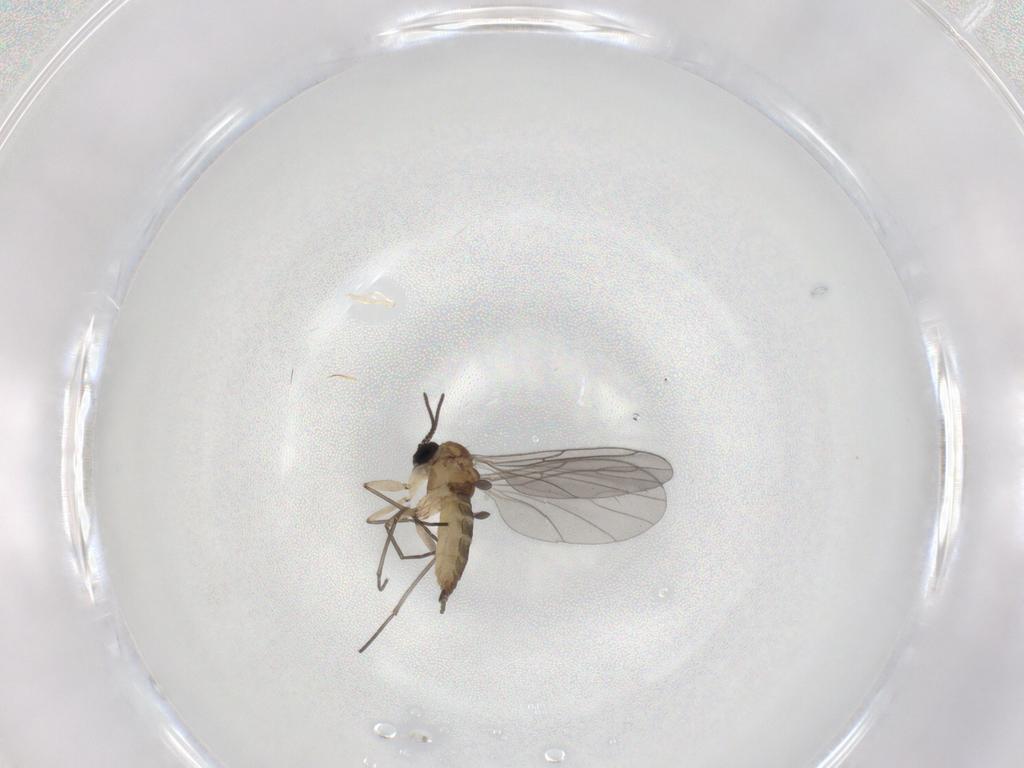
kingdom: Animalia
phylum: Arthropoda
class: Insecta
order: Diptera
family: Sciaridae
